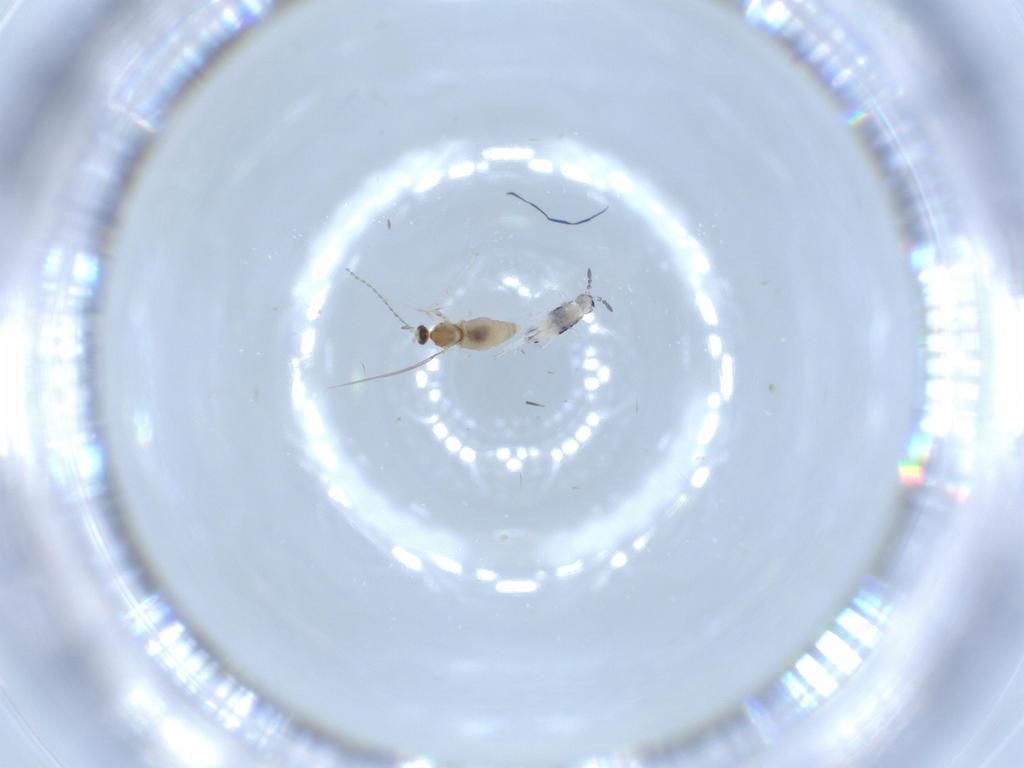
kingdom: Animalia
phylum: Arthropoda
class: Insecta
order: Diptera
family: Cecidomyiidae
